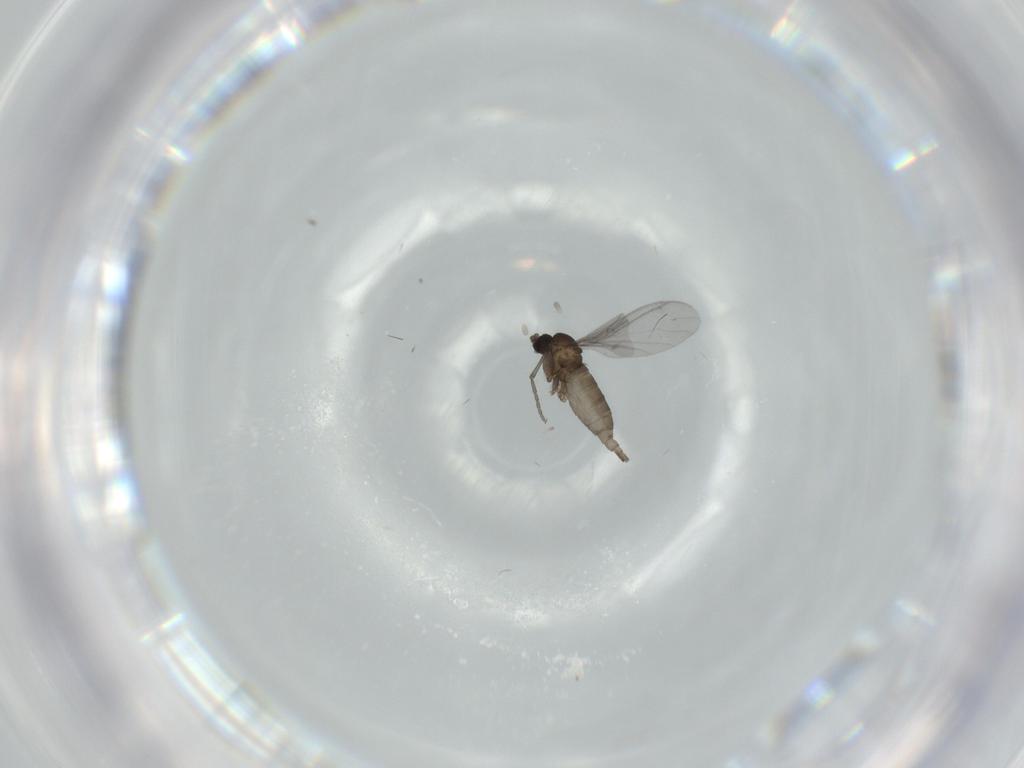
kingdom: Animalia
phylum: Arthropoda
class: Insecta
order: Diptera
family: Sciaridae
